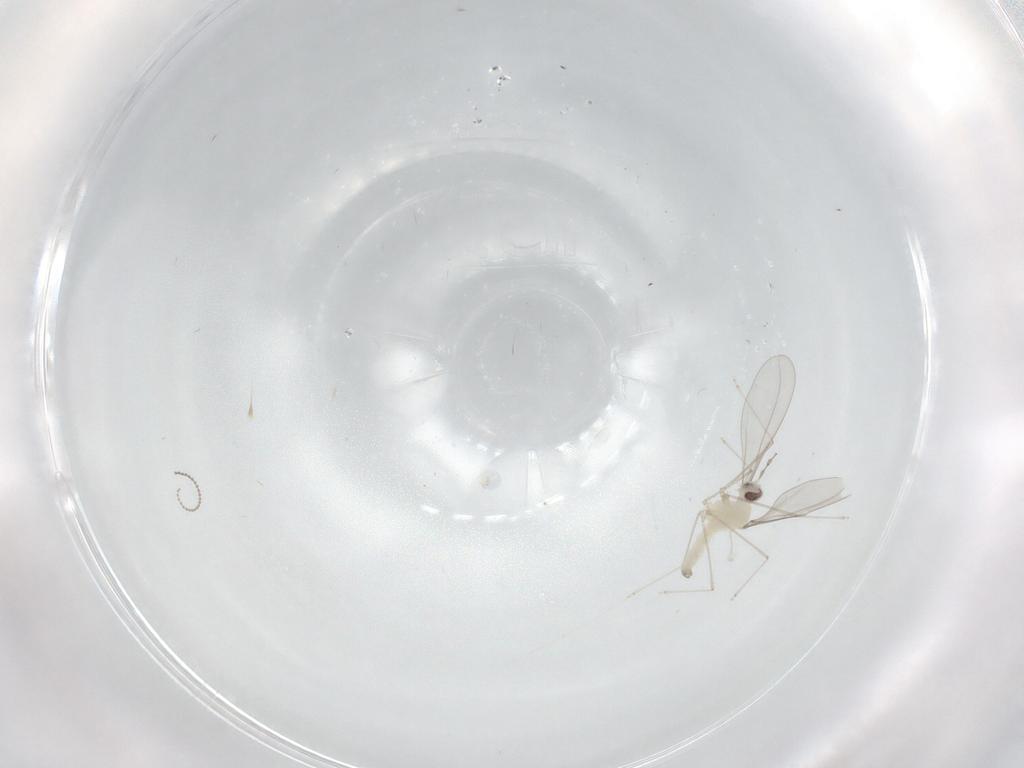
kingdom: Animalia
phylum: Arthropoda
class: Insecta
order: Diptera
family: Cecidomyiidae
